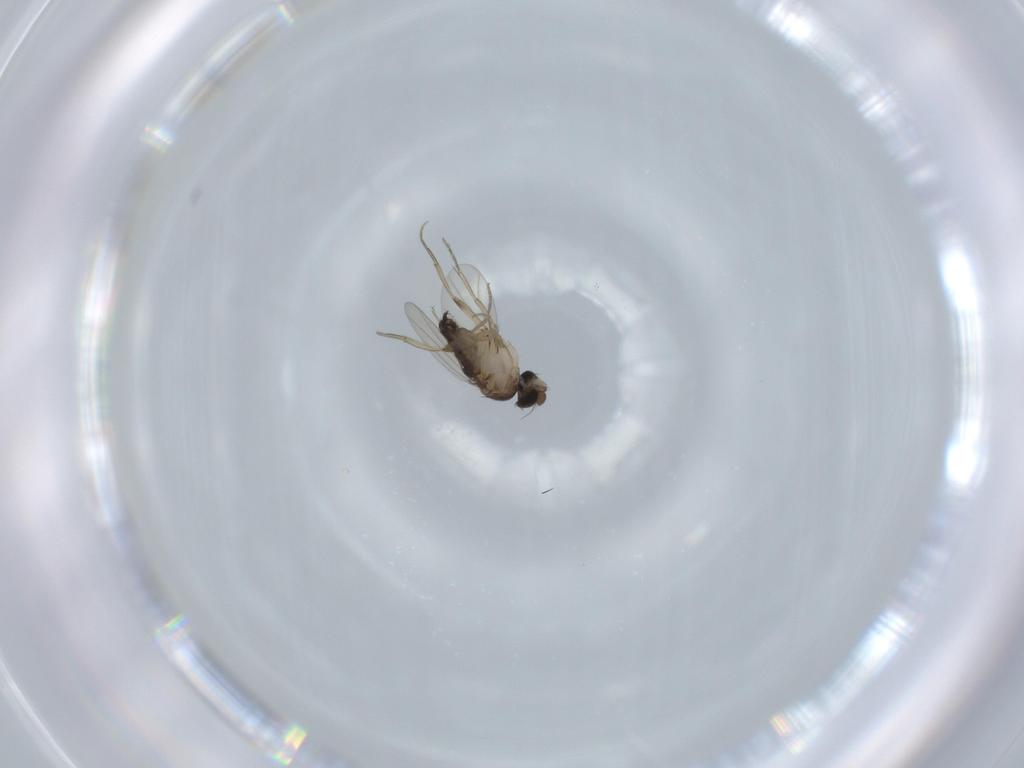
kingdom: Animalia
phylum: Arthropoda
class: Insecta
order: Diptera
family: Phoridae
